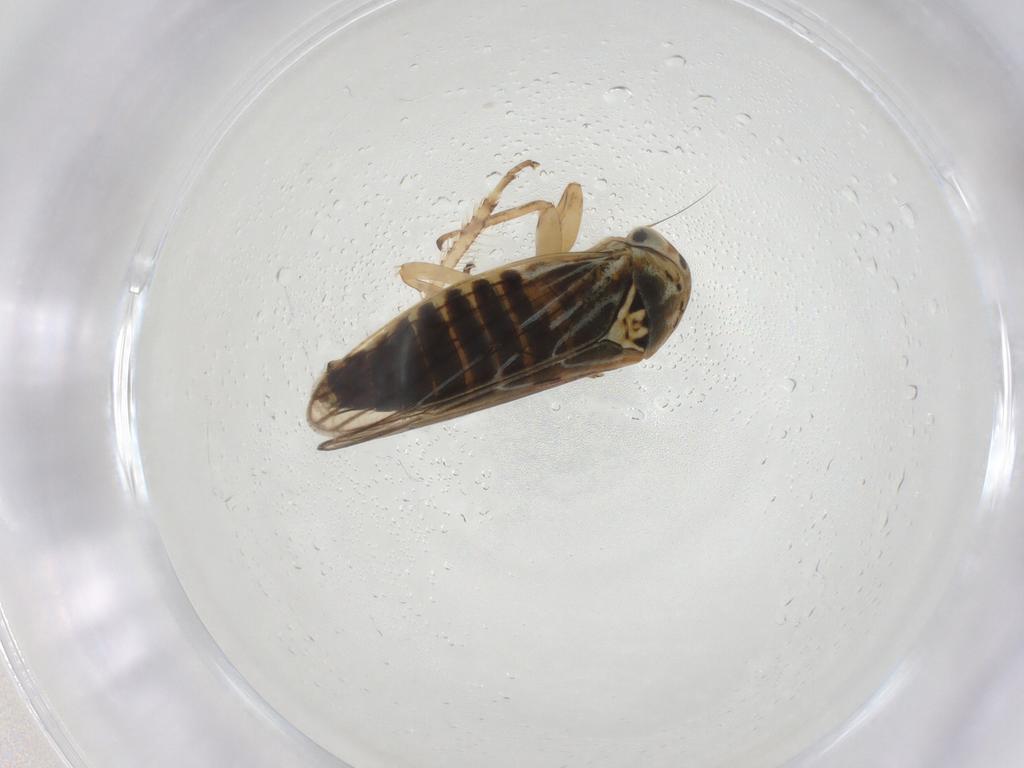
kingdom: Animalia
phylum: Arthropoda
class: Insecta
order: Hemiptera
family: Cicadellidae
